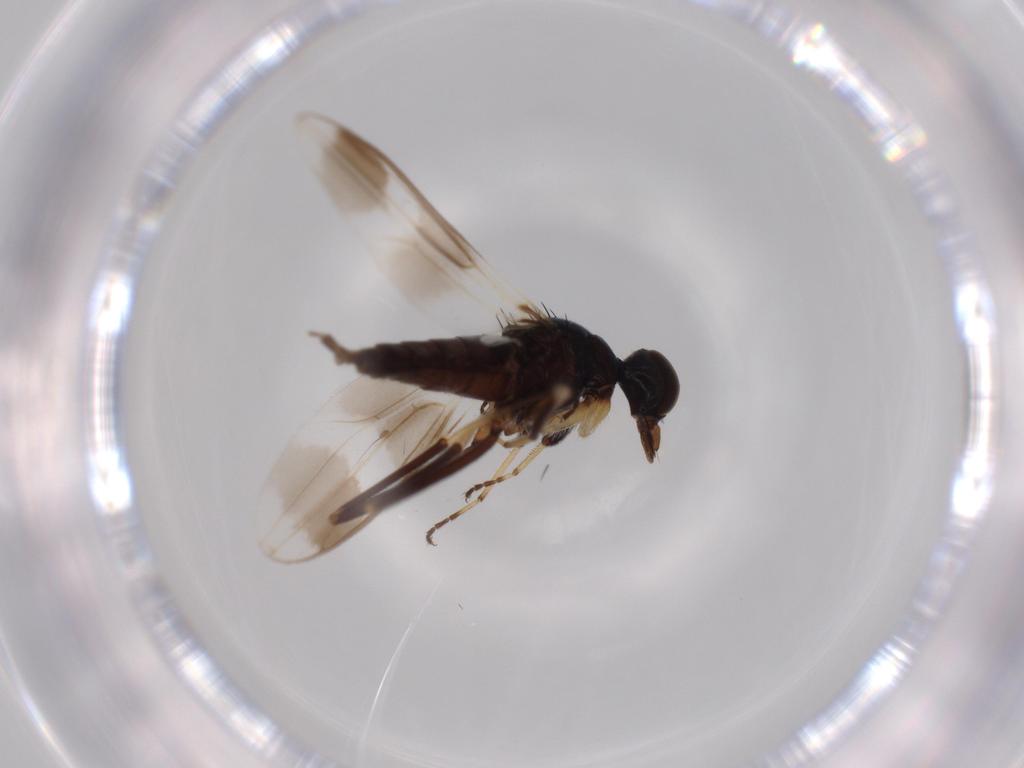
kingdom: Animalia
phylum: Arthropoda
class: Insecta
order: Diptera
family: Hybotidae
